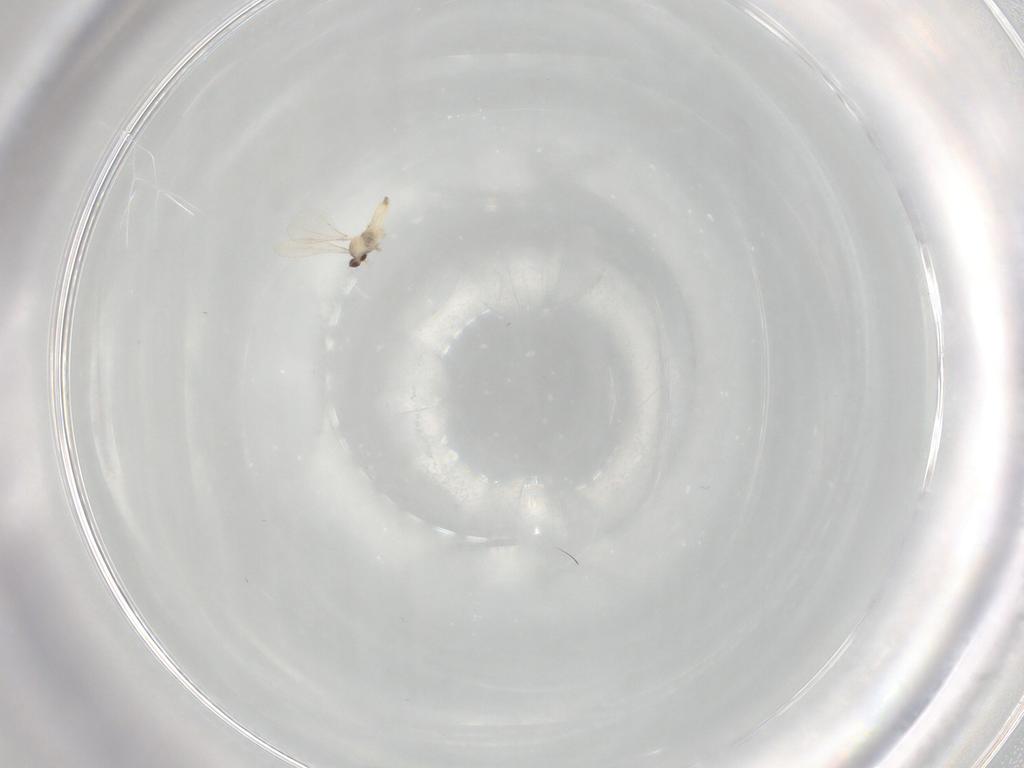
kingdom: Animalia
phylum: Arthropoda
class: Insecta
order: Diptera
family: Cecidomyiidae
